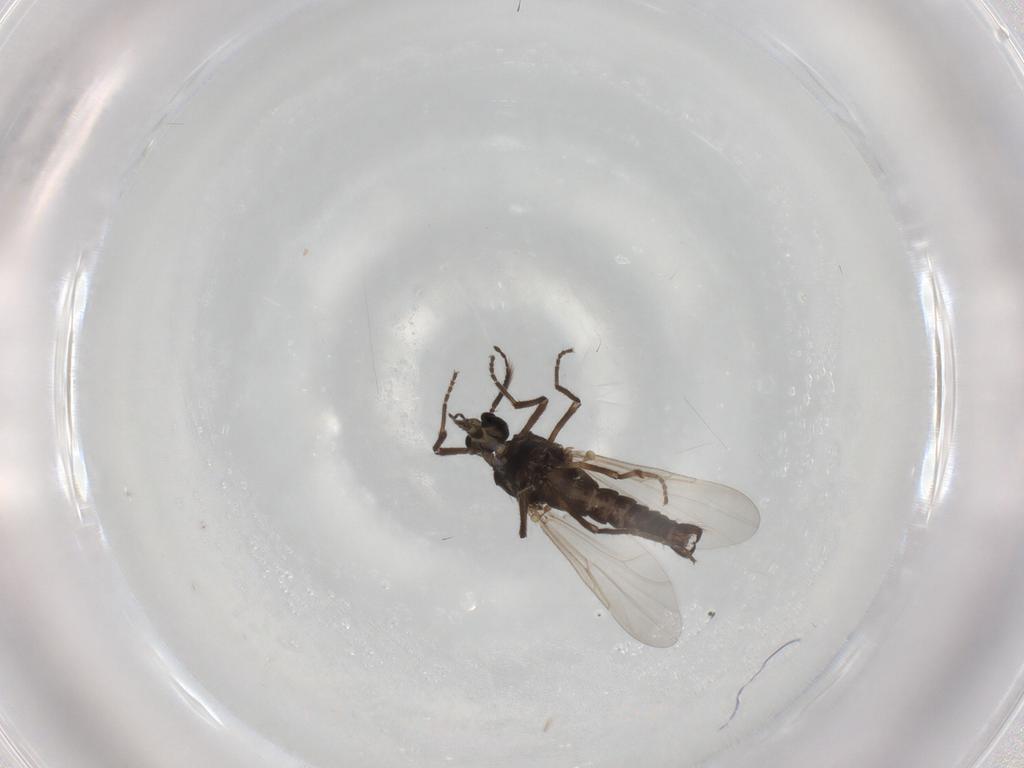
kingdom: Animalia
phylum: Arthropoda
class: Insecta
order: Diptera
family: Ceratopogonidae
